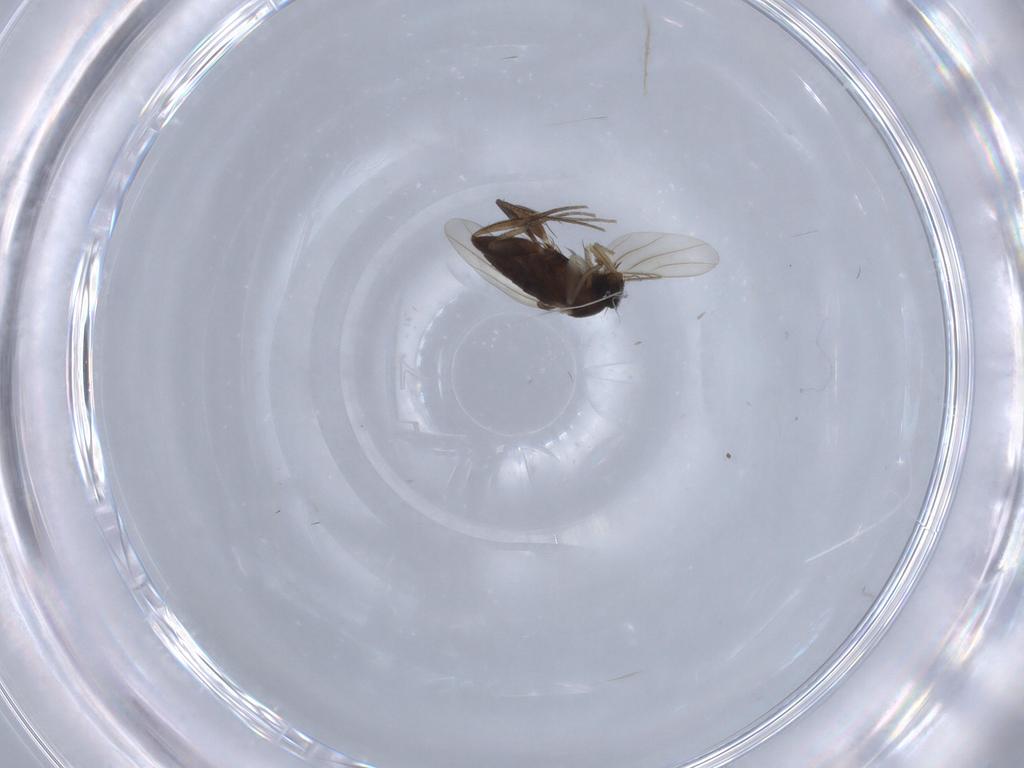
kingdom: Animalia
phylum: Arthropoda
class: Insecta
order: Diptera
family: Phoridae
